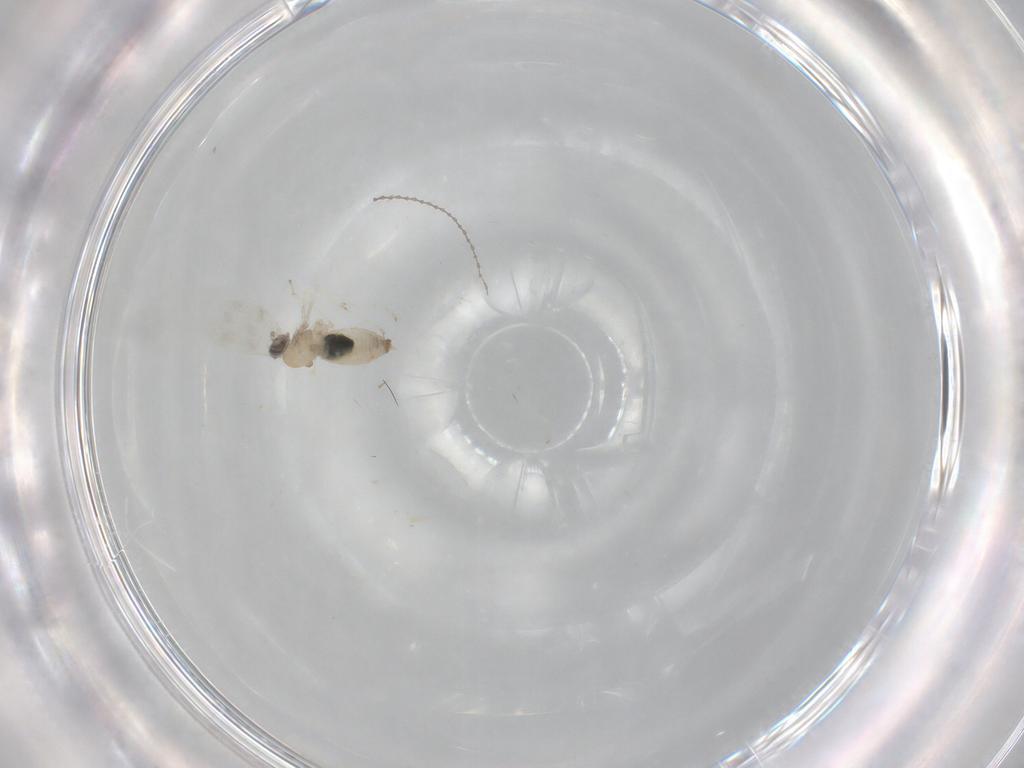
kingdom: Animalia
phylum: Arthropoda
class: Insecta
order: Diptera
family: Cecidomyiidae
